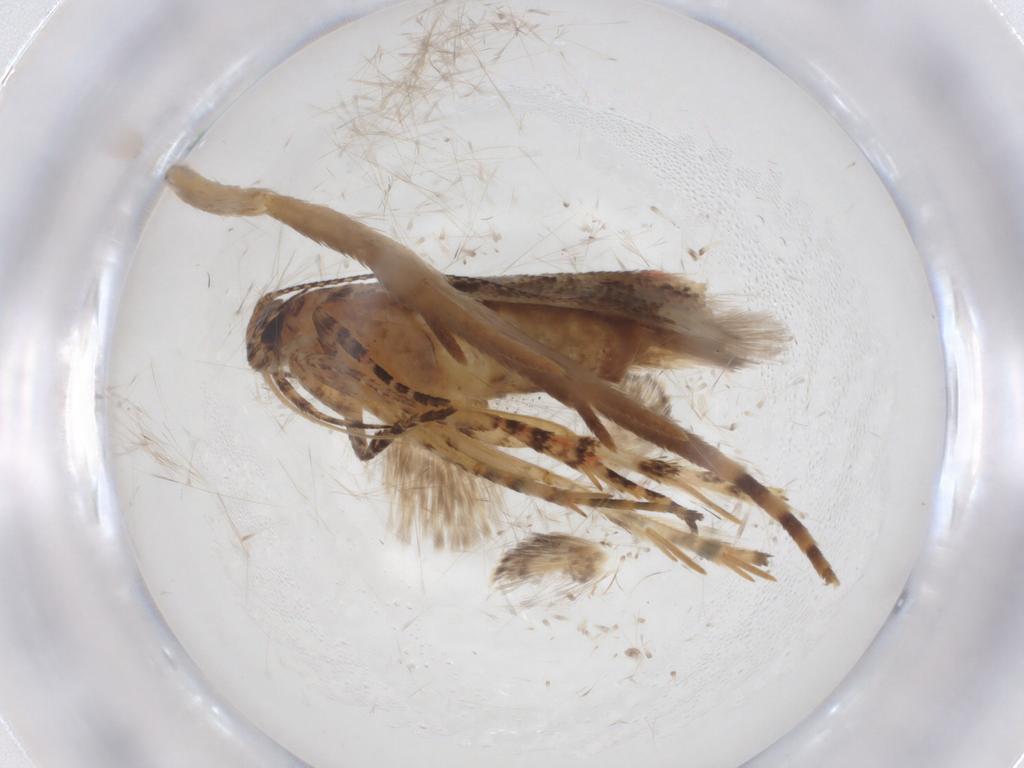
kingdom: Animalia
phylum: Arthropoda
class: Insecta
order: Lepidoptera
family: Gelechiidae
